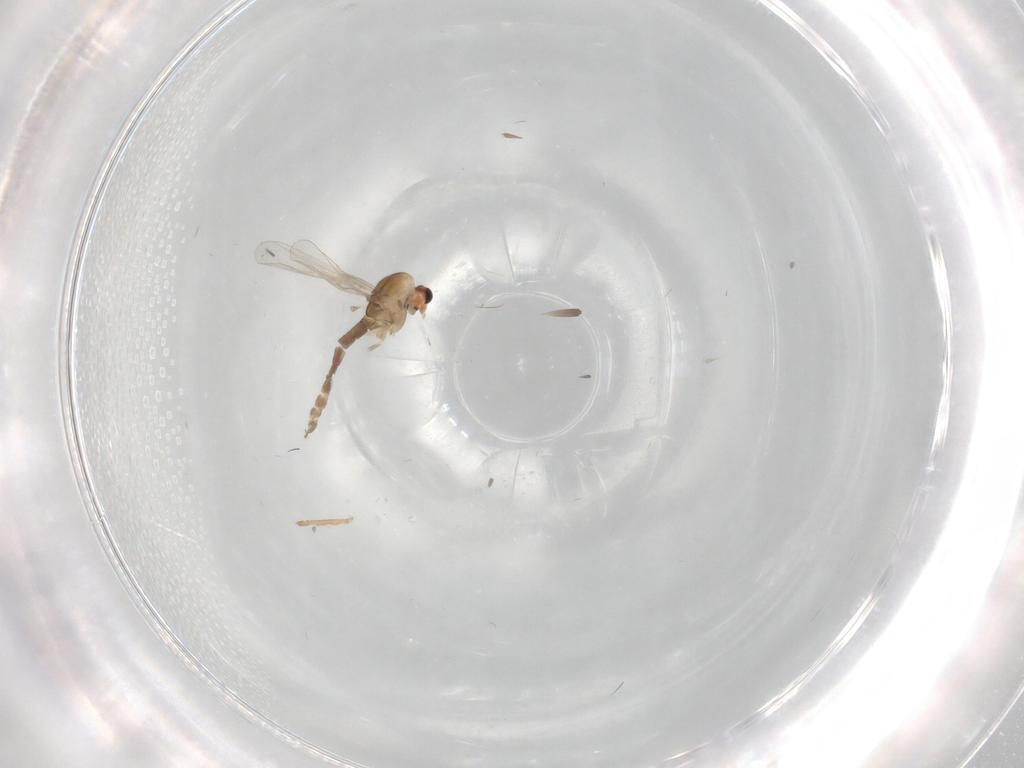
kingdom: Animalia
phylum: Arthropoda
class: Insecta
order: Diptera
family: Chironomidae
